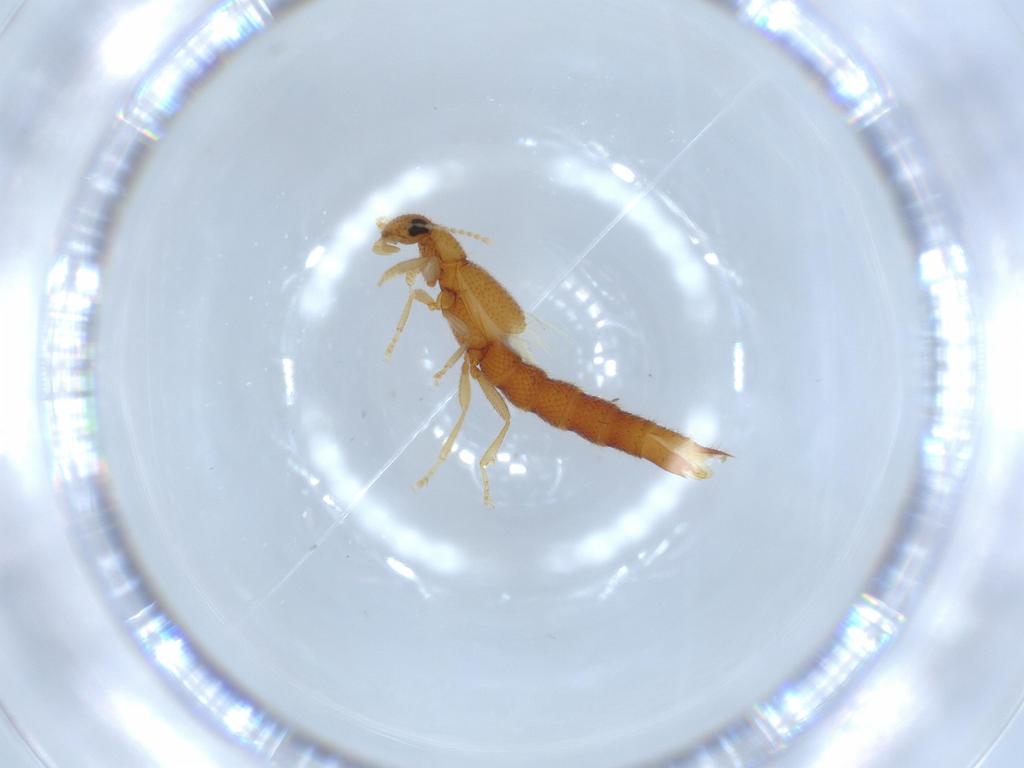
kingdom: Animalia
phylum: Arthropoda
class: Insecta
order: Coleoptera
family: Staphylinidae
